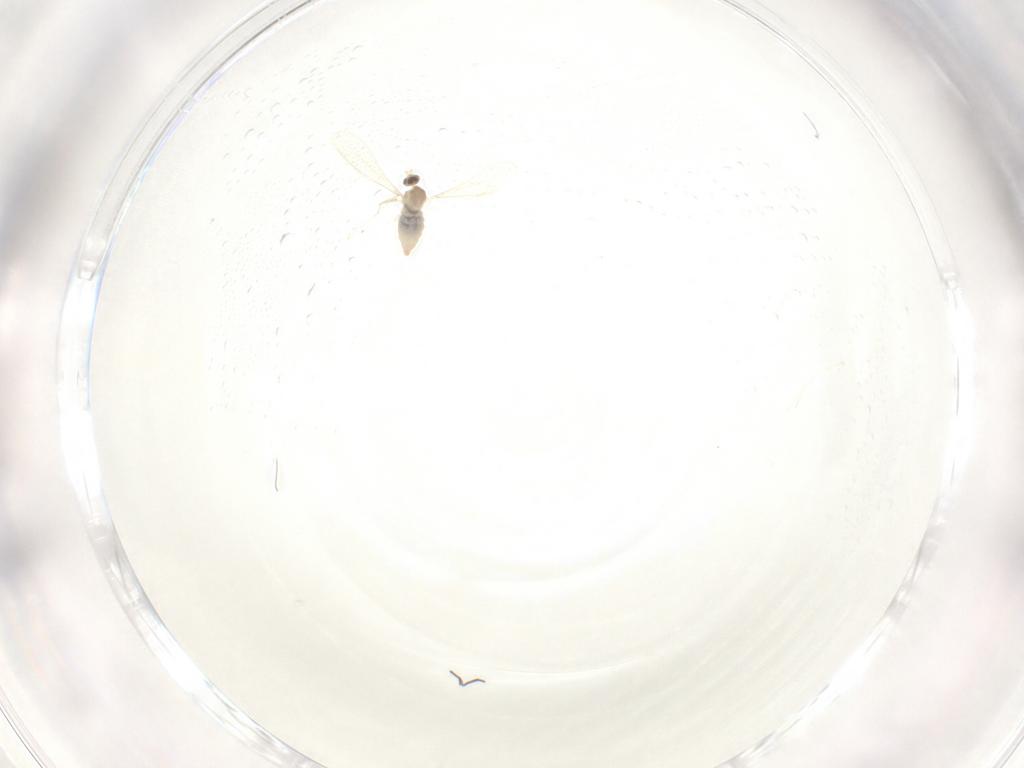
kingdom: Animalia
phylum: Arthropoda
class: Insecta
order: Diptera
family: Cecidomyiidae
